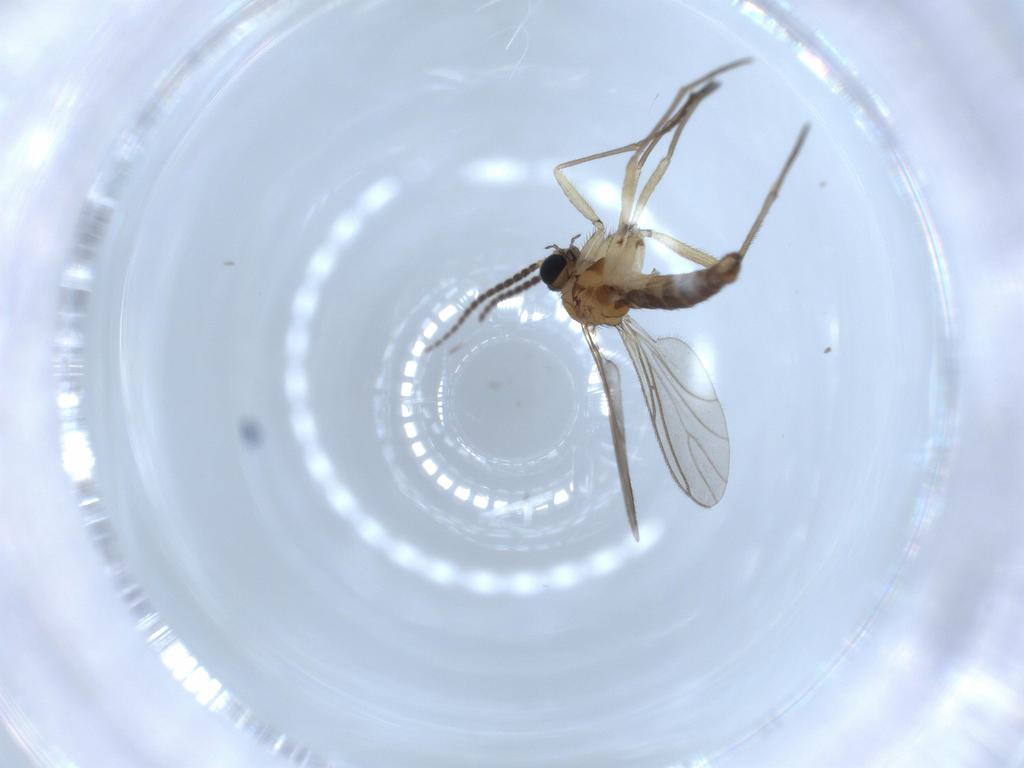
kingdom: Animalia
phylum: Arthropoda
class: Insecta
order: Diptera
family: Sciaridae
